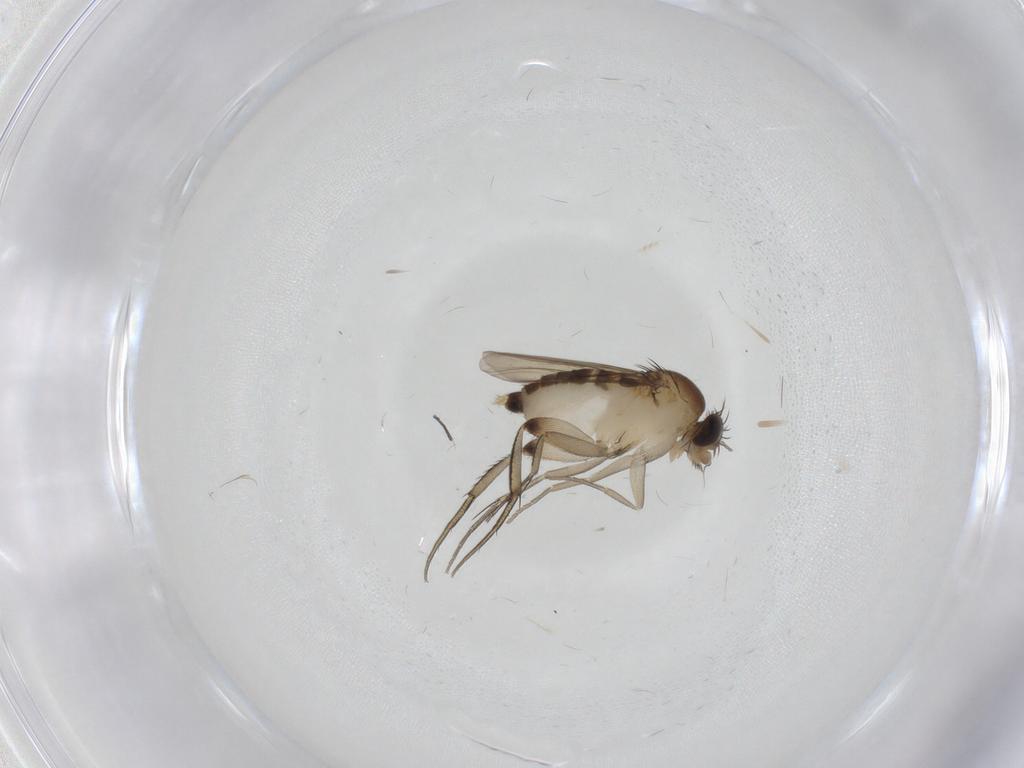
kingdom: Animalia
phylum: Arthropoda
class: Insecta
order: Diptera
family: Phoridae
